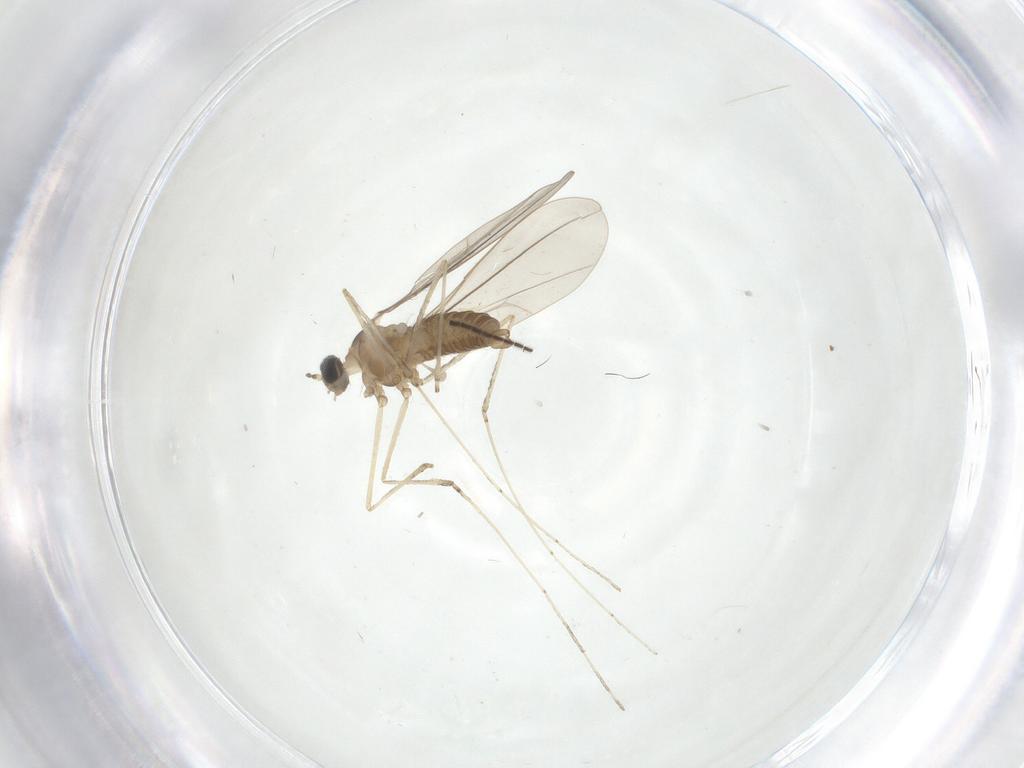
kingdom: Animalia
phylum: Arthropoda
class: Insecta
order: Diptera
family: Cecidomyiidae
